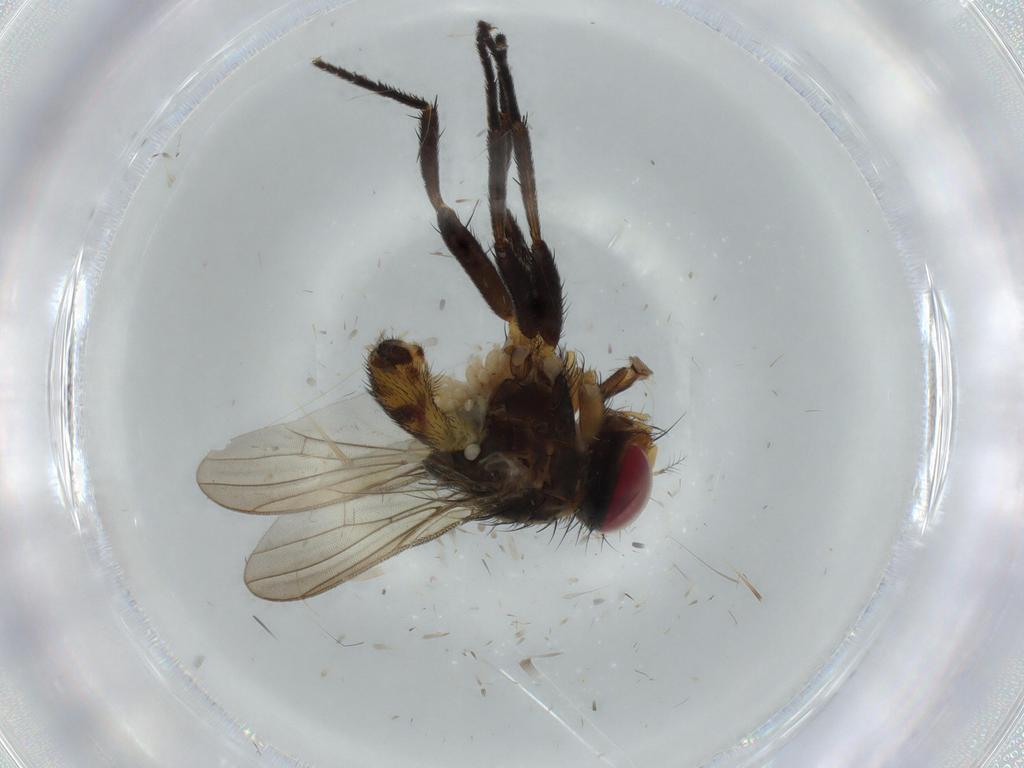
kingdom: Animalia
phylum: Arthropoda
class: Insecta
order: Diptera
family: Anthomyiidae
